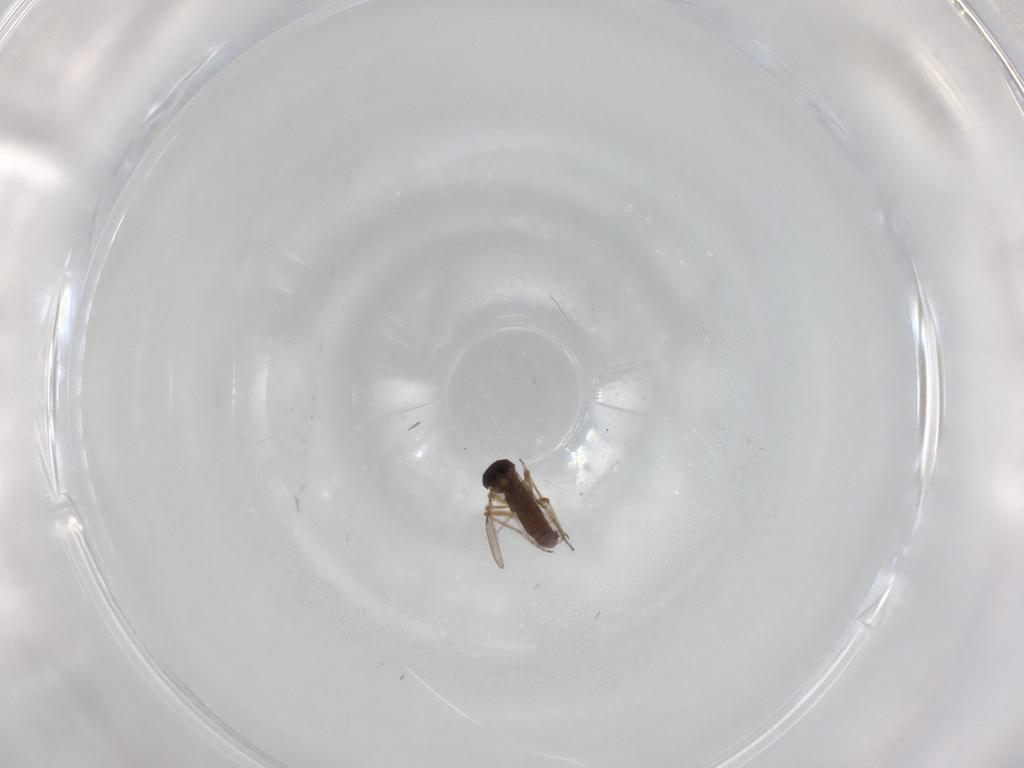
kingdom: Animalia
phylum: Arthropoda
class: Insecta
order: Diptera
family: Ceratopogonidae
